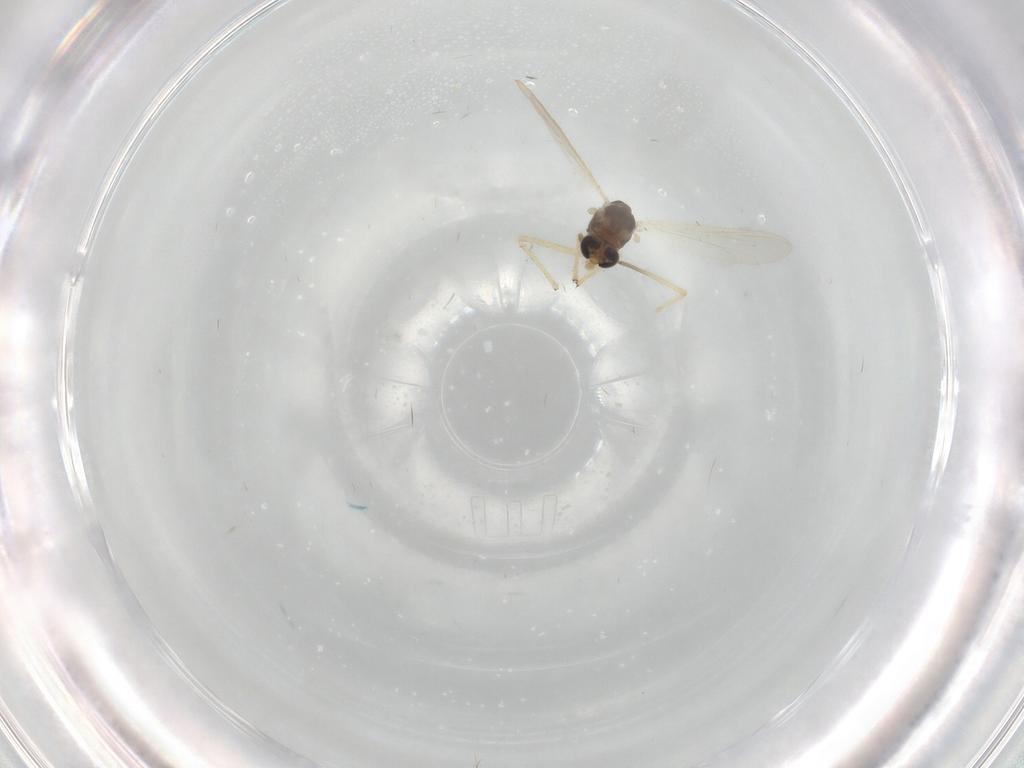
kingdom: Animalia
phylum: Arthropoda
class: Insecta
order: Diptera
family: Chironomidae
